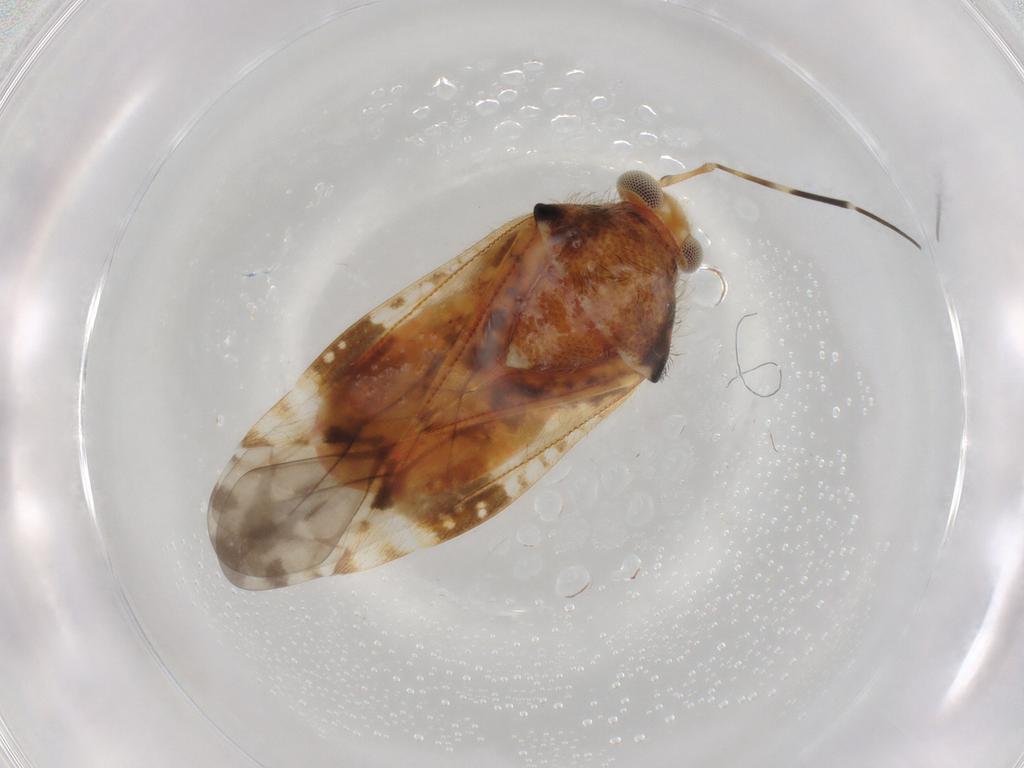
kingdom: Animalia
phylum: Arthropoda
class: Insecta
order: Hemiptera
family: Miridae
